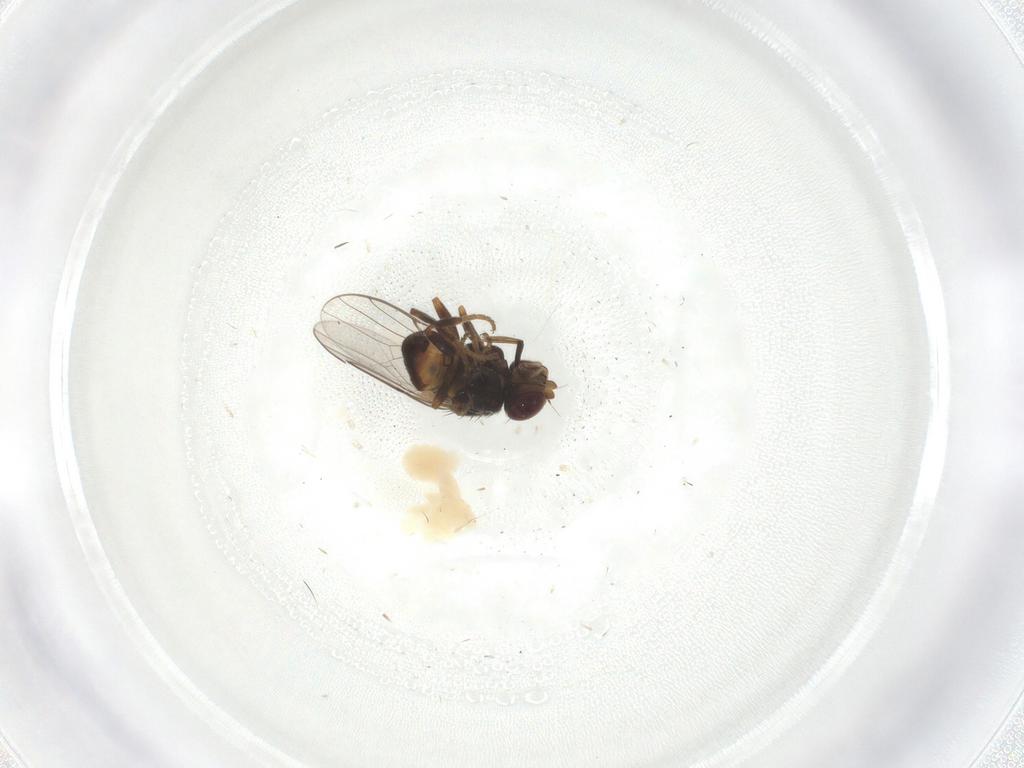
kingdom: Animalia
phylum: Arthropoda
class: Insecta
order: Diptera
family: Chloropidae
